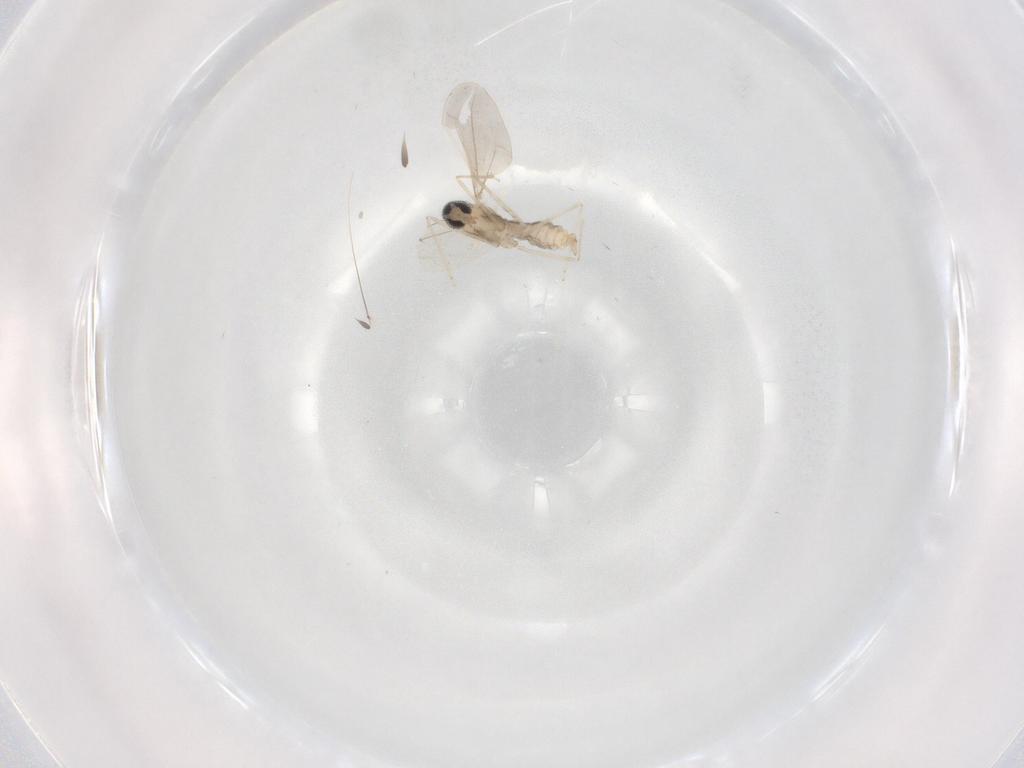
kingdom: Animalia
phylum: Arthropoda
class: Insecta
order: Diptera
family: Cecidomyiidae
